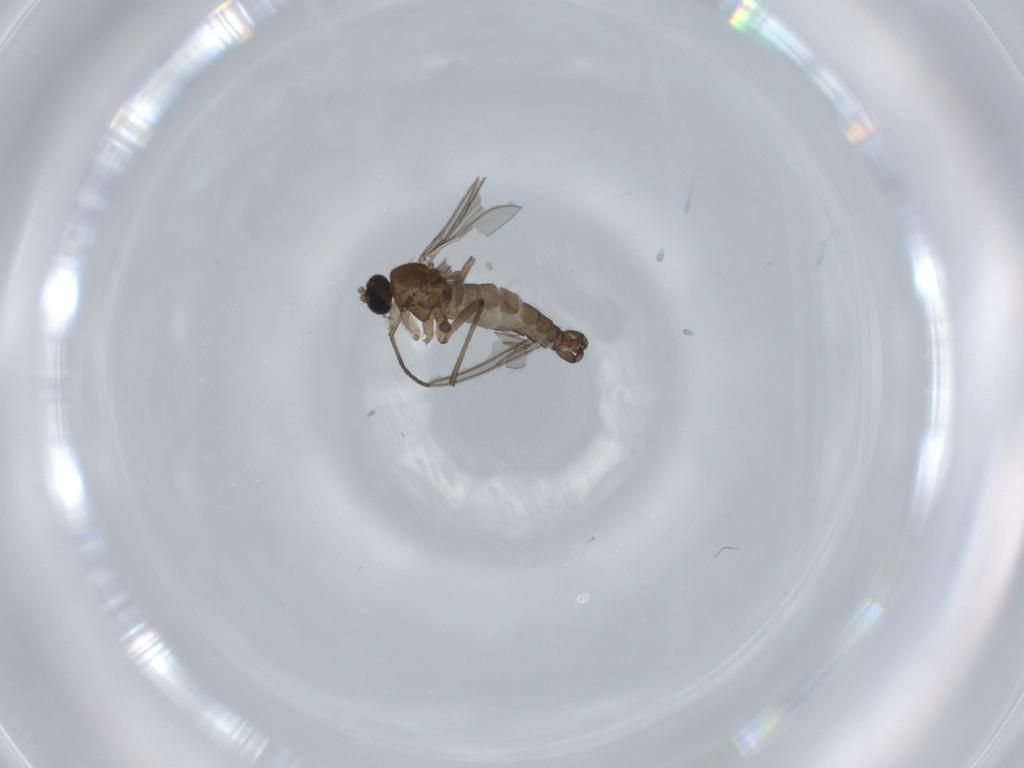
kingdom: Animalia
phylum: Arthropoda
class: Insecta
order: Diptera
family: Sciaridae
